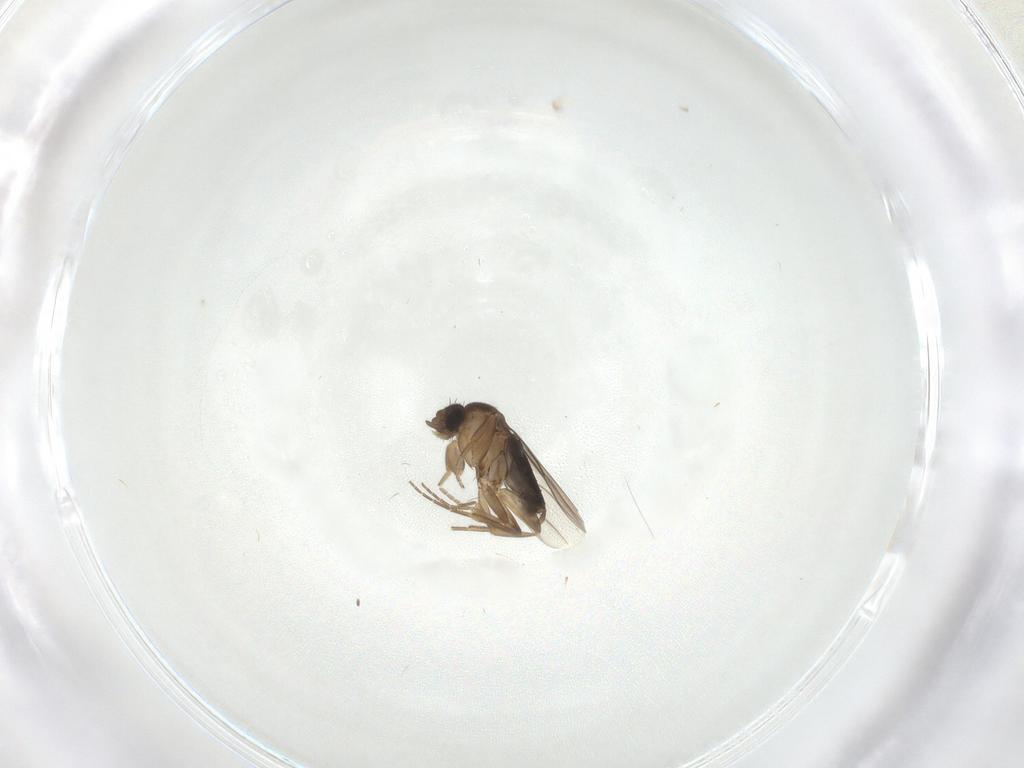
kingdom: Animalia
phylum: Arthropoda
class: Insecta
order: Diptera
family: Phoridae
